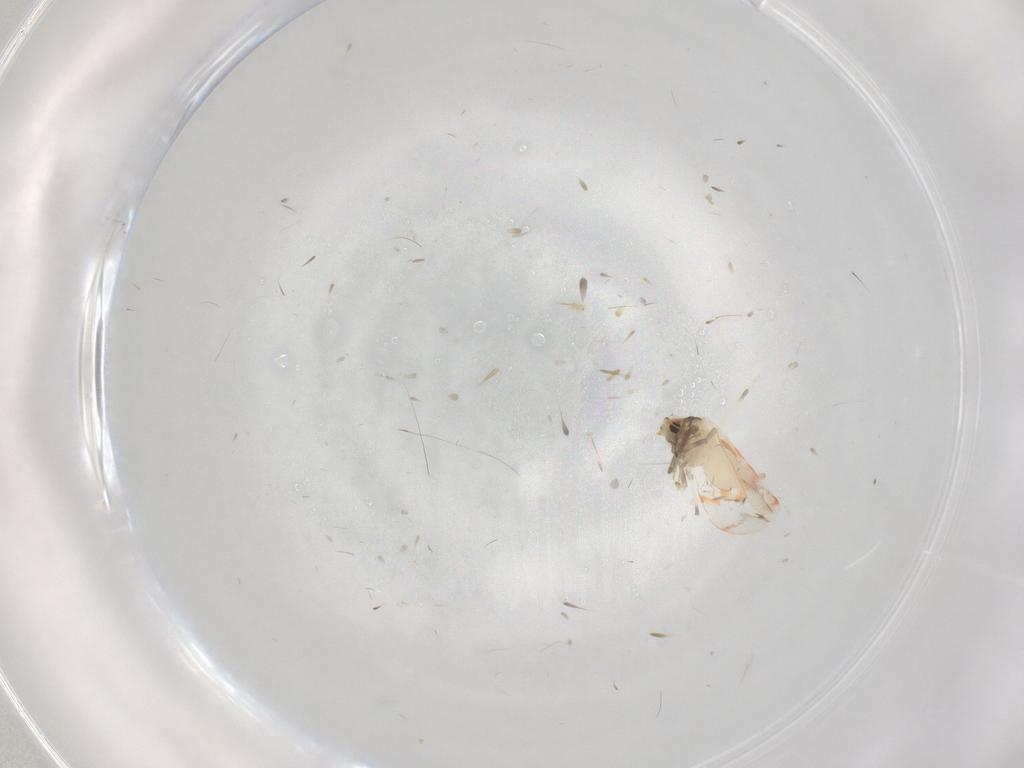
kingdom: Animalia
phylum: Arthropoda
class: Insecta
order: Hemiptera
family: Aleyrodidae
